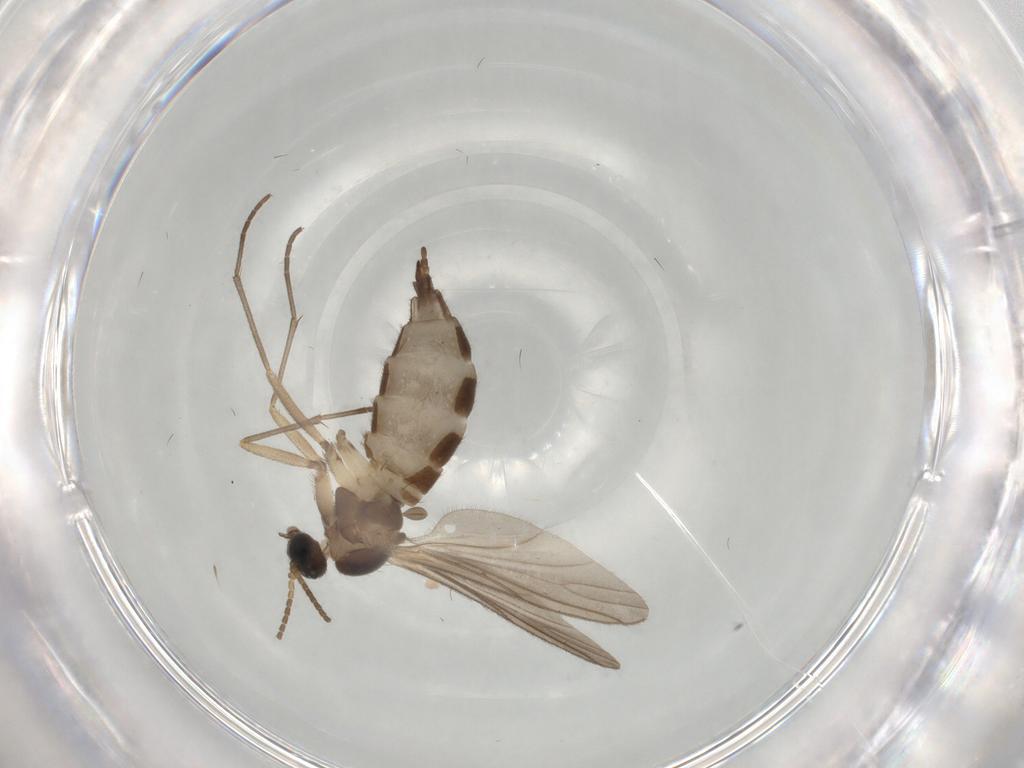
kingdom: Animalia
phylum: Arthropoda
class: Insecta
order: Diptera
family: Sciaridae
